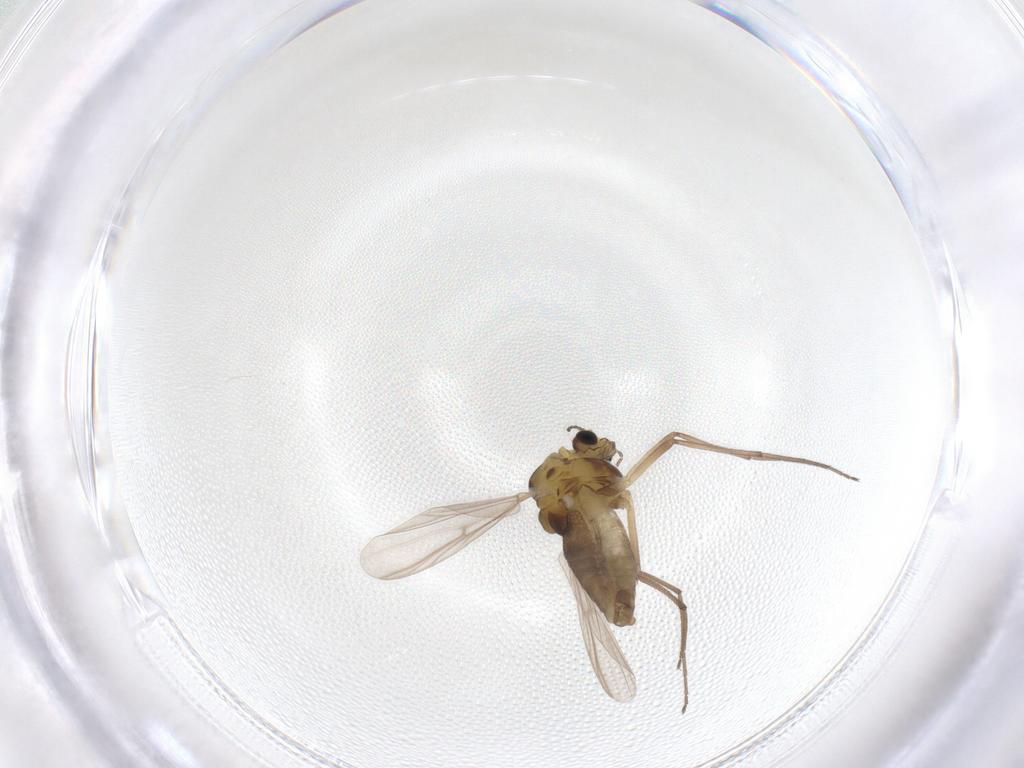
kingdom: Animalia
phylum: Arthropoda
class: Insecta
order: Diptera
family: Chironomidae
